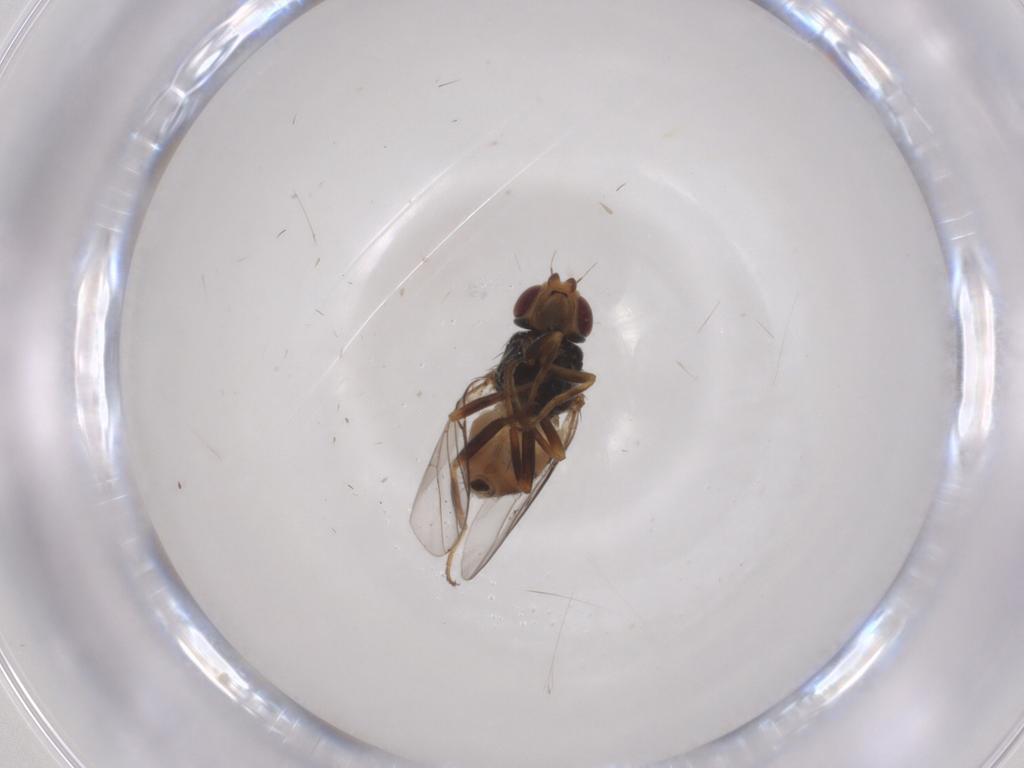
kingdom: Animalia
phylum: Arthropoda
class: Insecta
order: Diptera
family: Chloropidae
